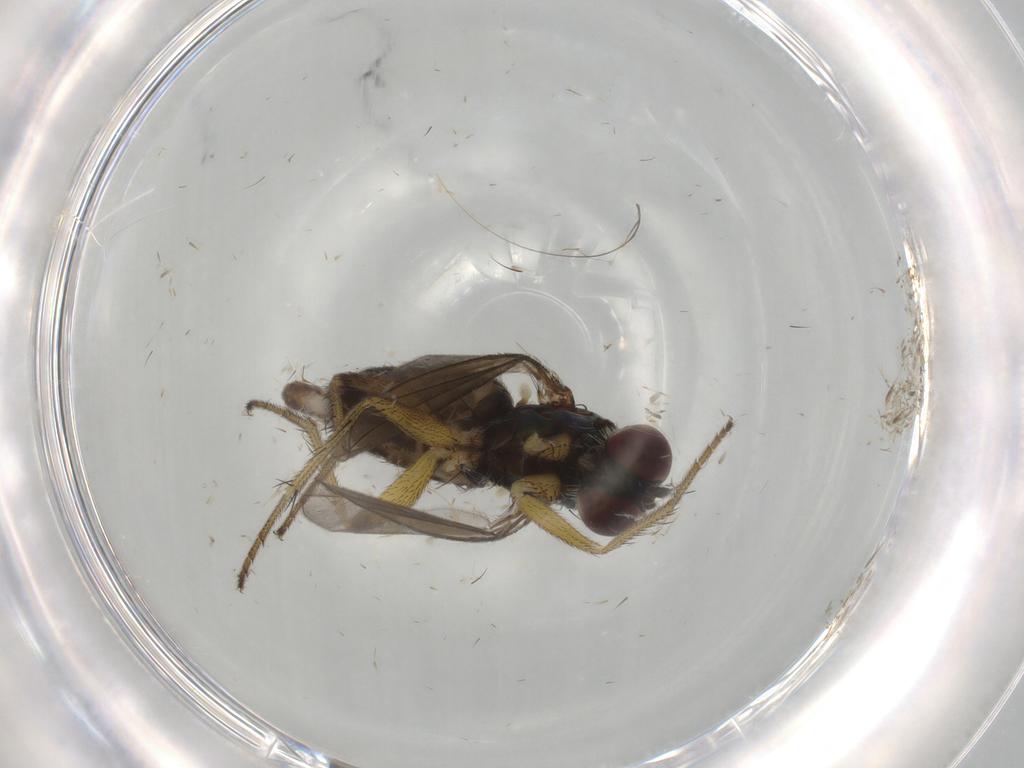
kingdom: Animalia
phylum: Arthropoda
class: Insecta
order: Diptera
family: Dolichopodidae
